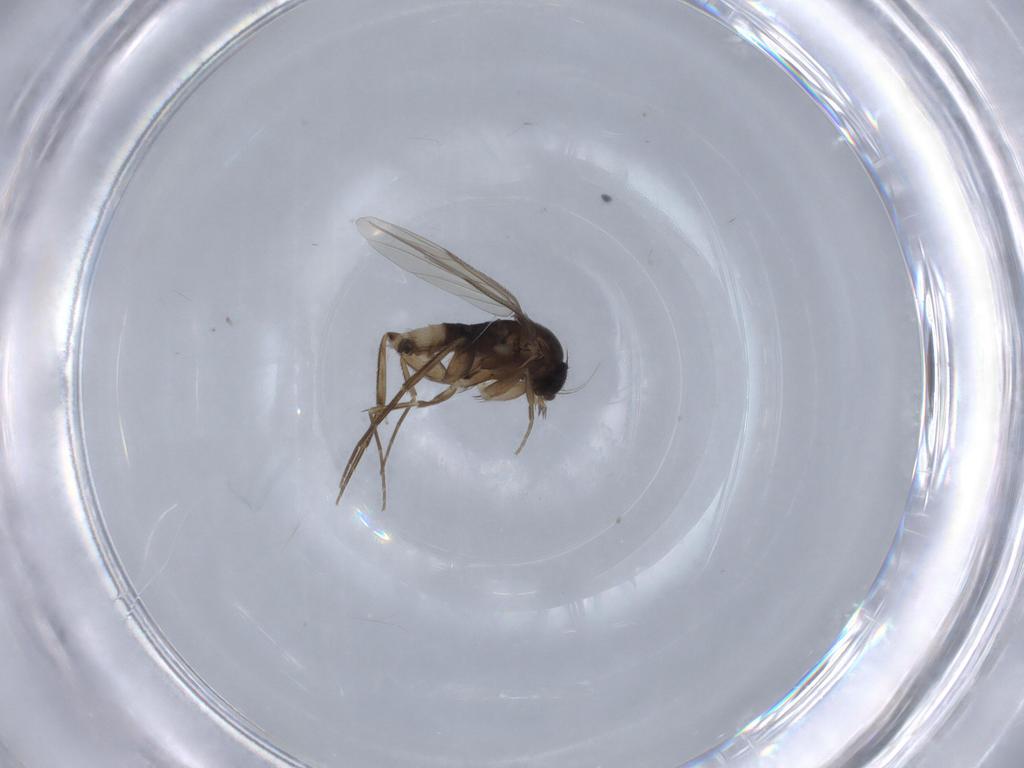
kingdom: Animalia
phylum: Arthropoda
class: Insecta
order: Diptera
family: Phoridae
